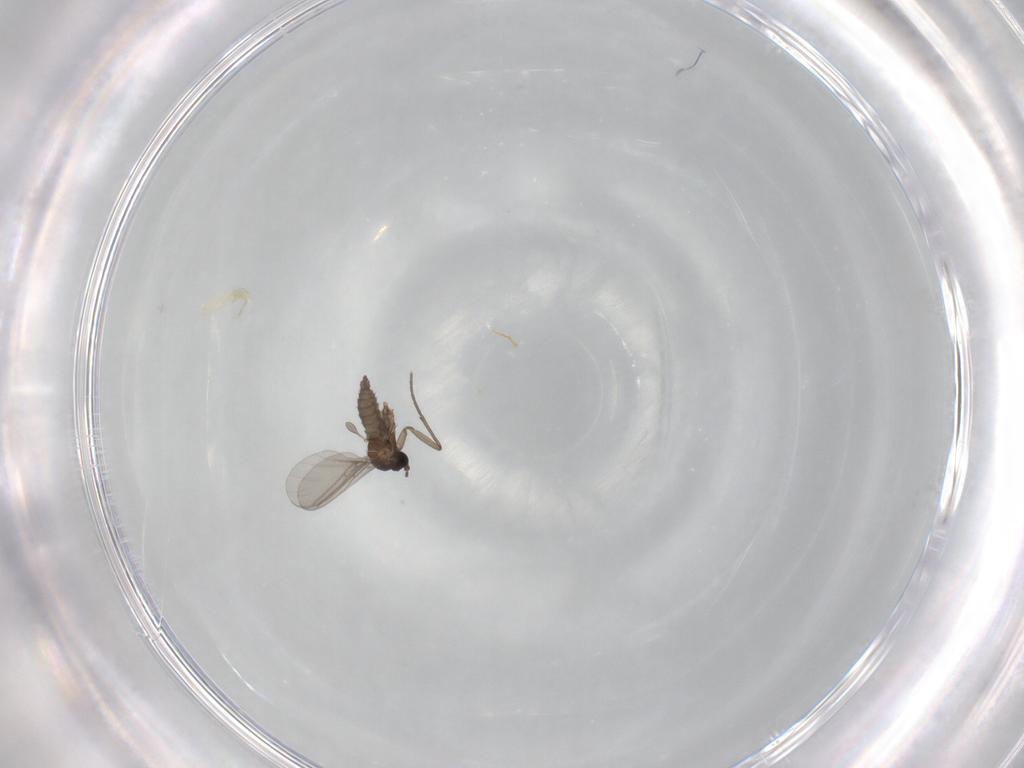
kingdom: Animalia
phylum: Arthropoda
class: Insecta
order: Diptera
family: Sciaridae
